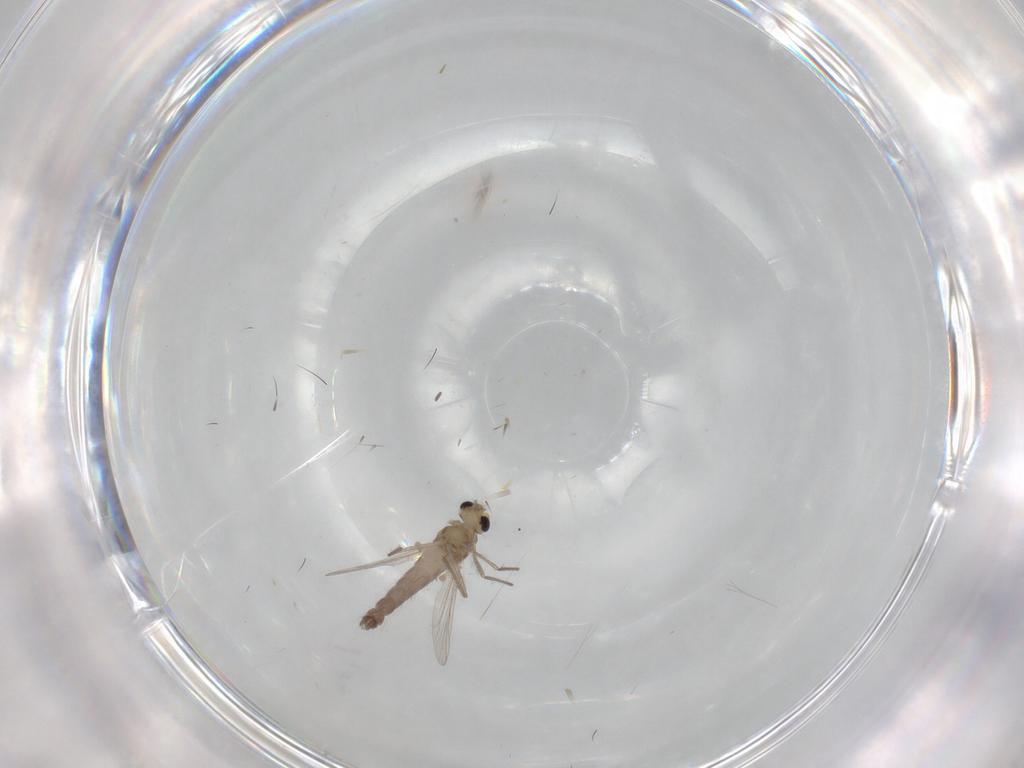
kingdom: Animalia
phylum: Arthropoda
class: Insecta
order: Diptera
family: Chironomidae
